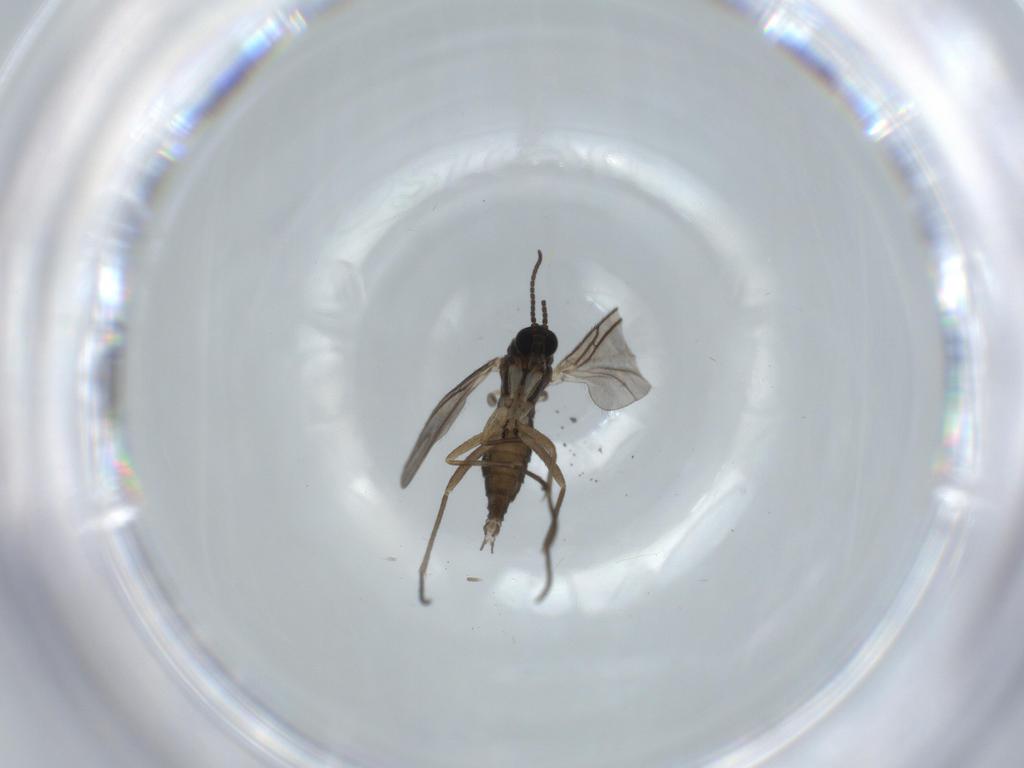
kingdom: Animalia
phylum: Arthropoda
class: Insecta
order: Diptera
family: Sciaridae
